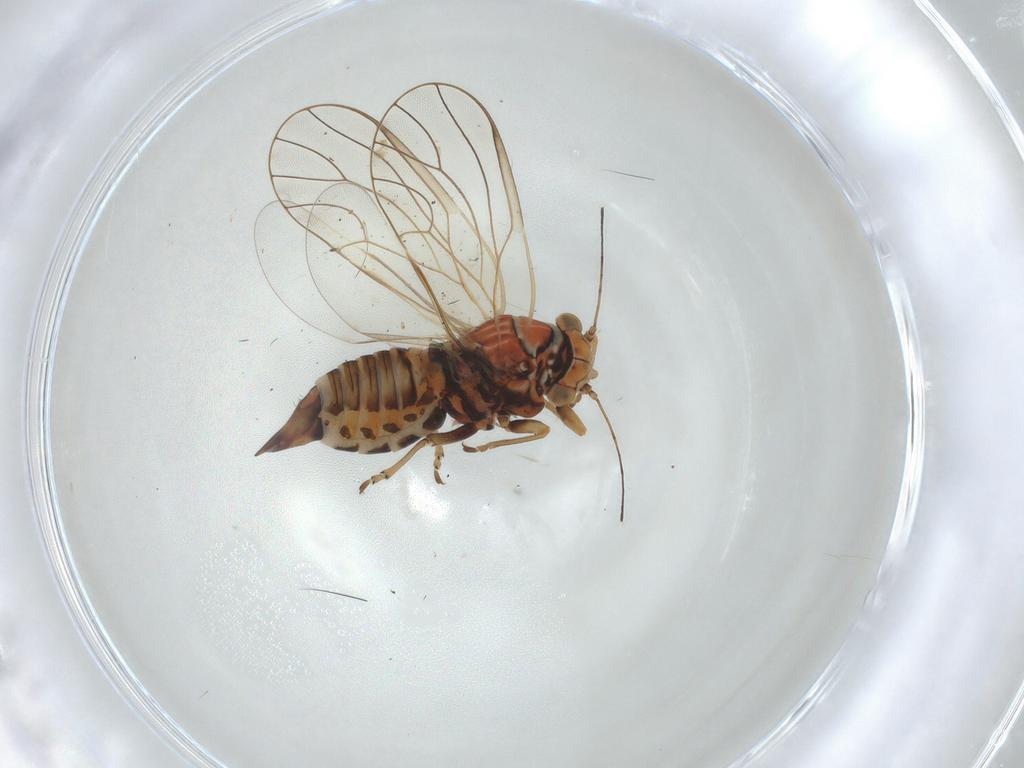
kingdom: Animalia
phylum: Arthropoda
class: Insecta
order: Hemiptera
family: Psyllidae
